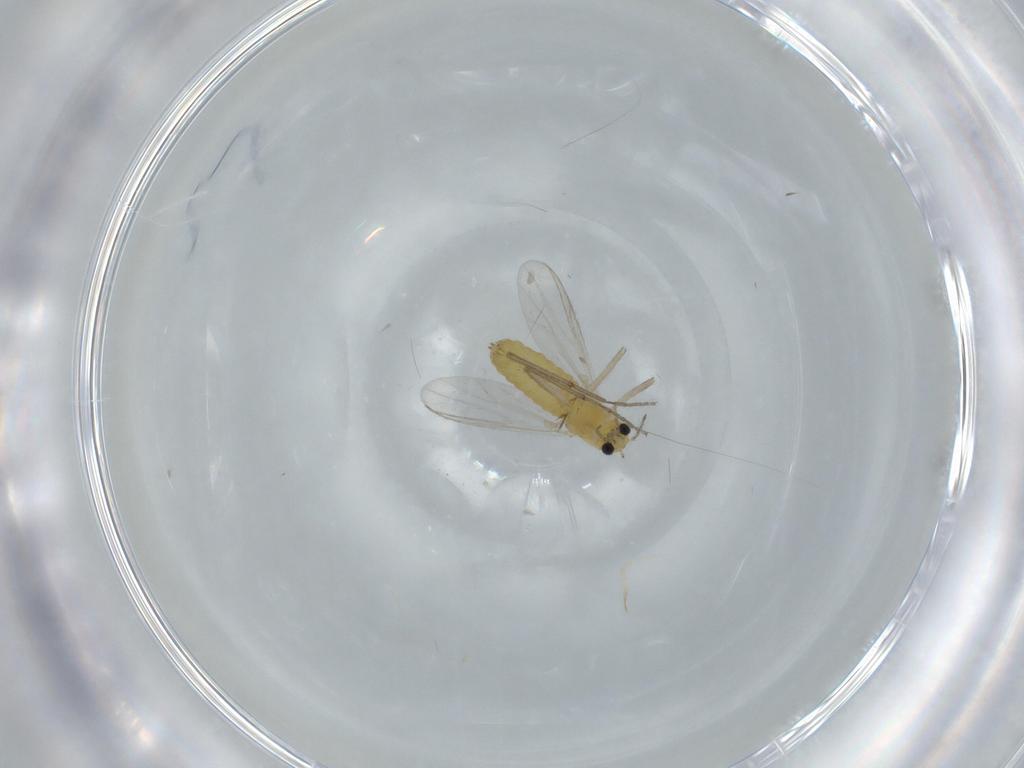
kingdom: Animalia
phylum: Arthropoda
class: Insecta
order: Diptera
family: Chironomidae
